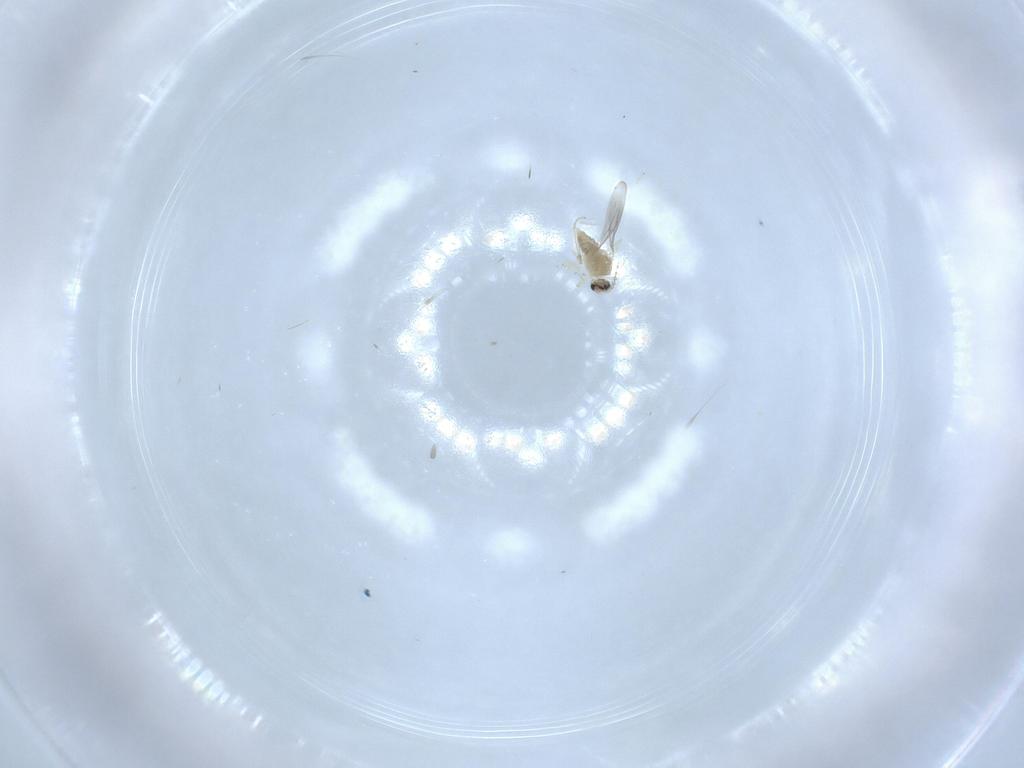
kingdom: Animalia
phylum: Arthropoda
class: Insecta
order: Diptera
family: Cecidomyiidae
